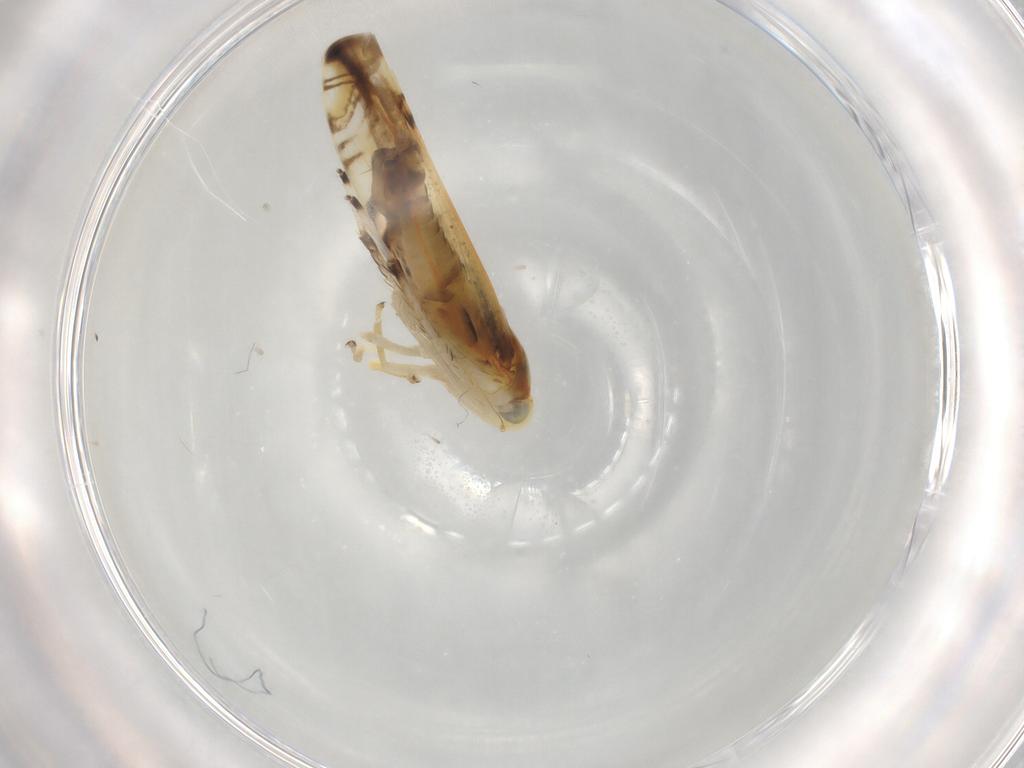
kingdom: Animalia
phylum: Arthropoda
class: Insecta
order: Hemiptera
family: Cicadellidae
